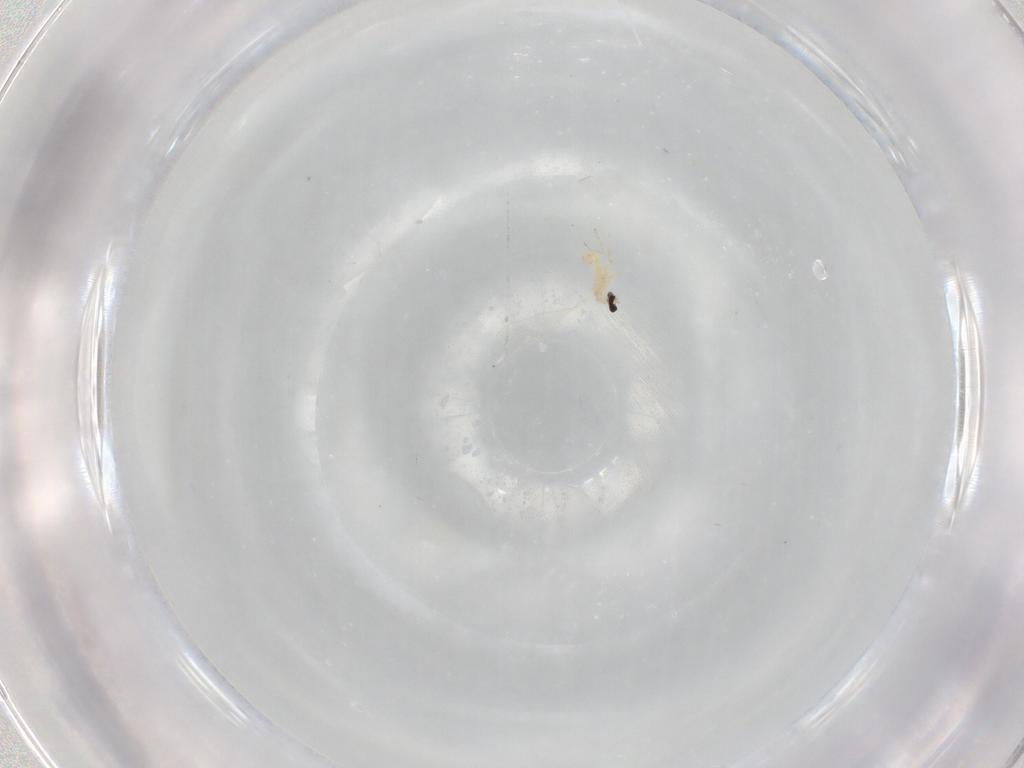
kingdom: Animalia
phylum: Arthropoda
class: Insecta
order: Diptera
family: Cecidomyiidae
